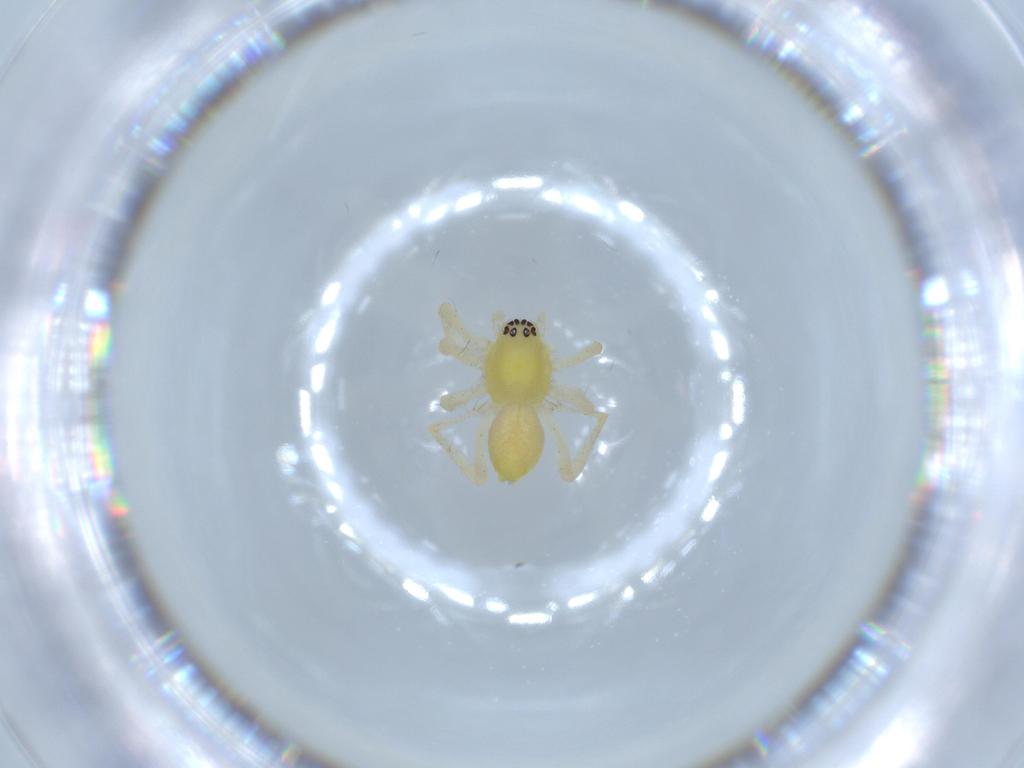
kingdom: Animalia
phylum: Arthropoda
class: Arachnida
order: Araneae
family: Anyphaenidae
